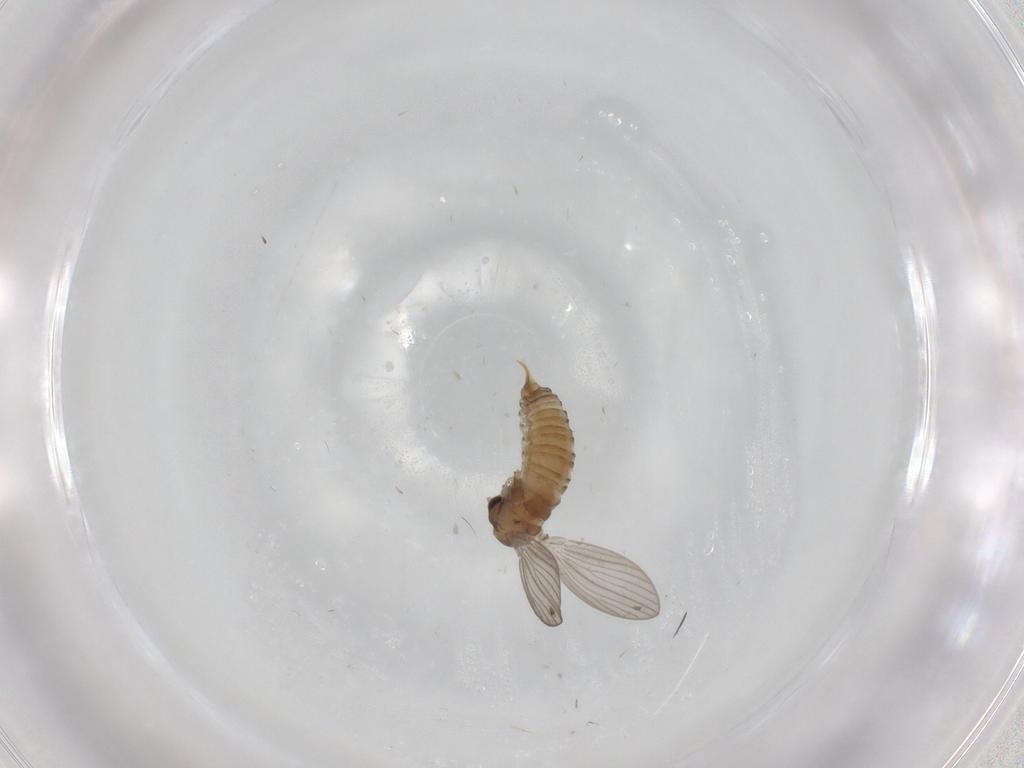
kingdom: Animalia
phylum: Arthropoda
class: Insecta
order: Diptera
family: Psychodidae
